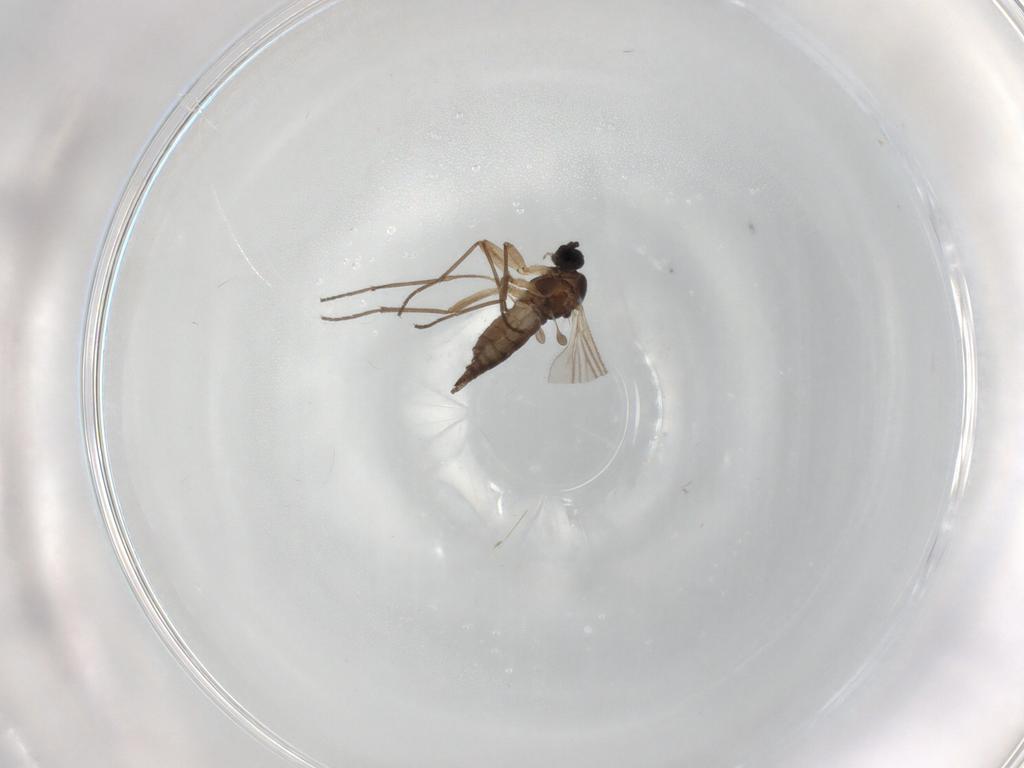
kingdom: Animalia
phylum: Arthropoda
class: Insecta
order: Diptera
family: Sciaridae
